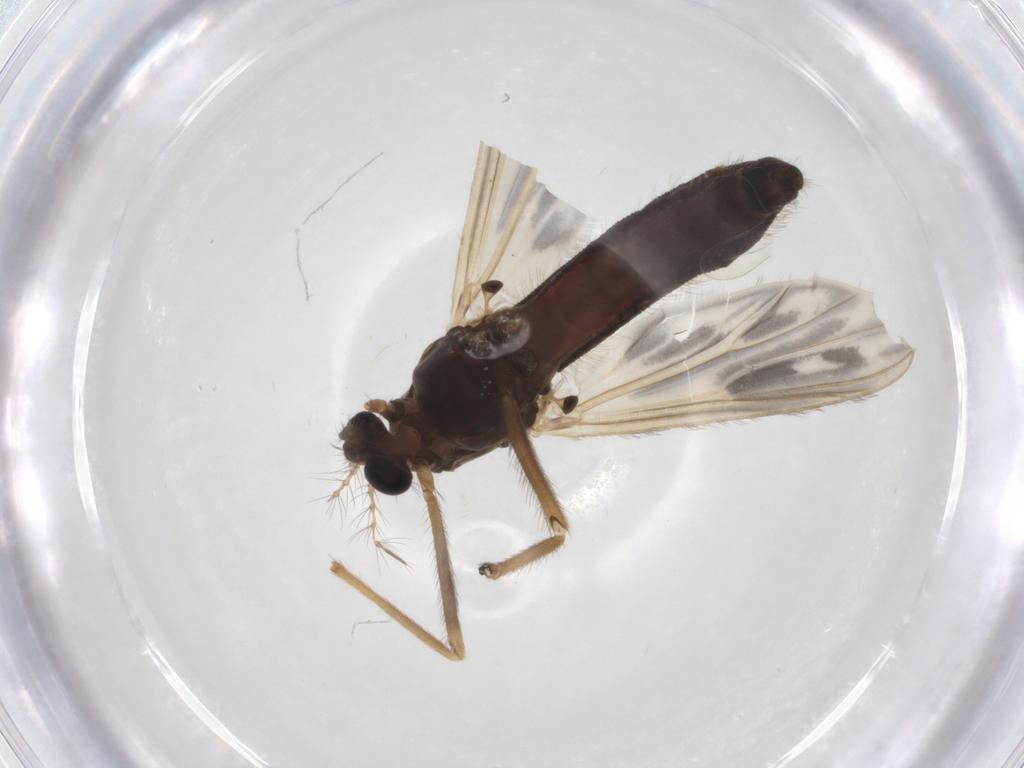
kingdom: Animalia
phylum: Arthropoda
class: Insecta
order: Diptera
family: Chironomidae
